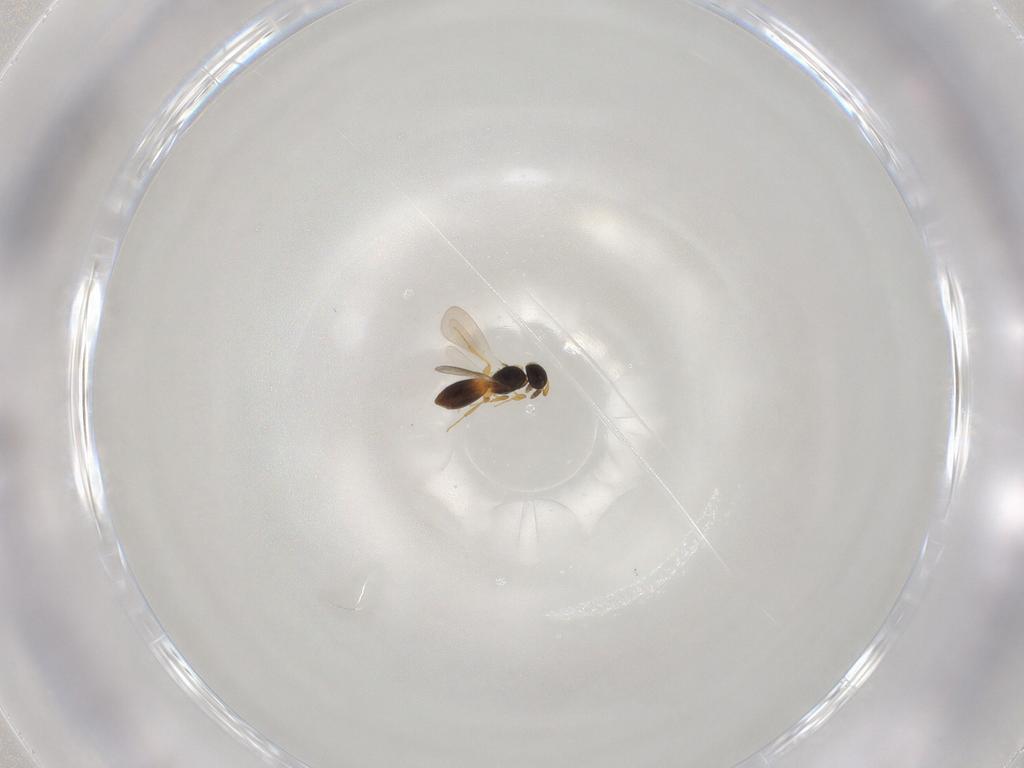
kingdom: Animalia
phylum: Arthropoda
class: Insecta
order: Hymenoptera
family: Platygastridae
